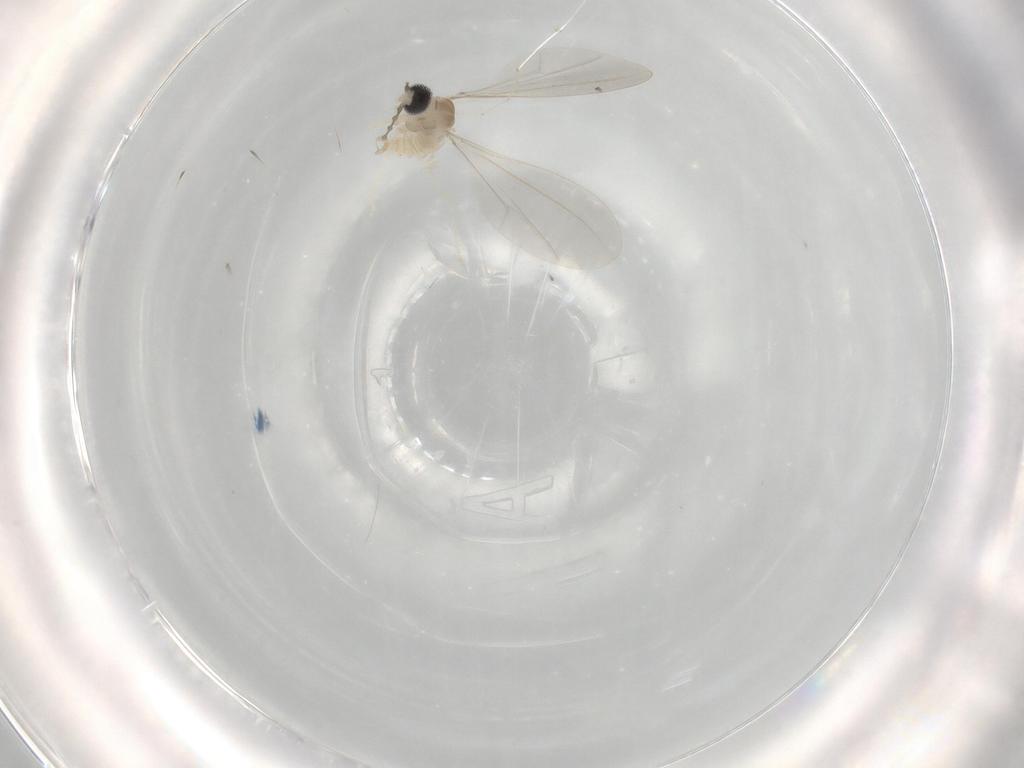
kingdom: Animalia
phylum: Arthropoda
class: Insecta
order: Diptera
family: Cecidomyiidae
